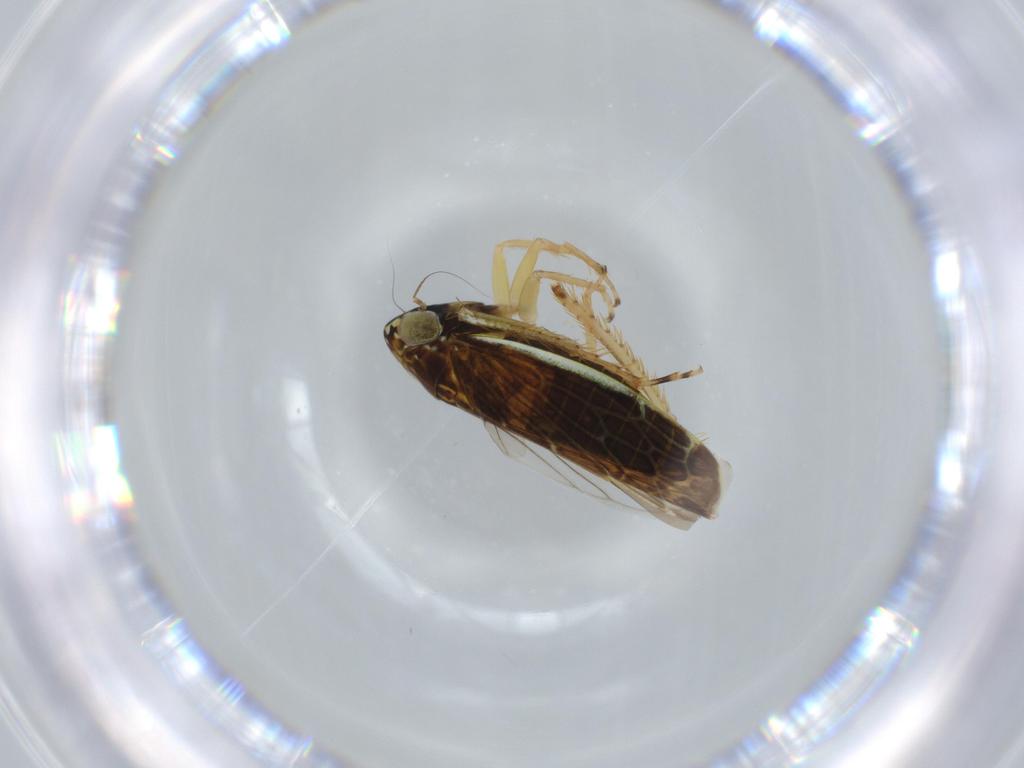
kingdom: Animalia
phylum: Arthropoda
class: Insecta
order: Hemiptera
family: Cicadellidae
